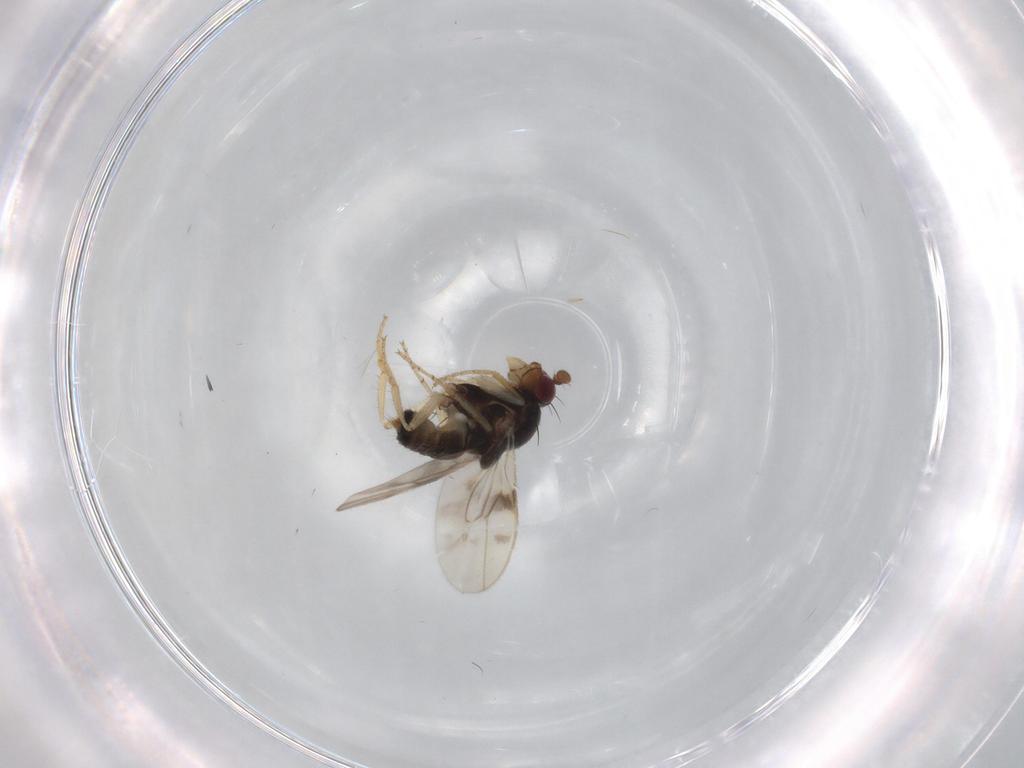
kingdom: Animalia
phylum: Arthropoda
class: Insecta
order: Diptera
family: Sphaeroceridae
